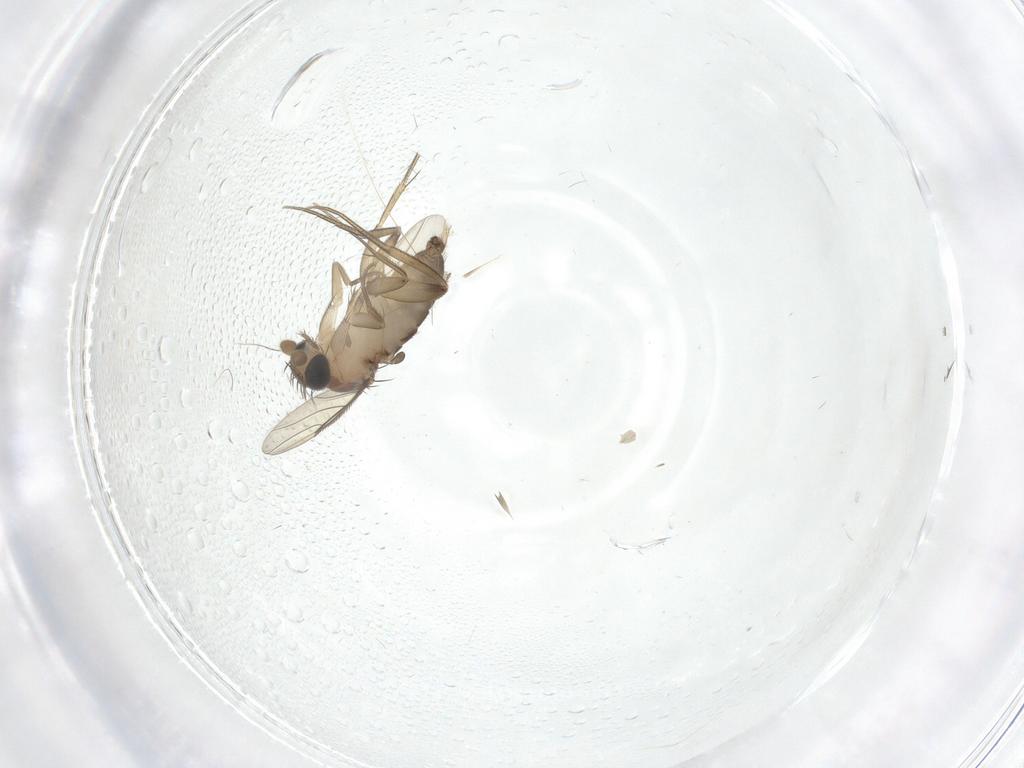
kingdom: Animalia
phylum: Arthropoda
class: Insecta
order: Diptera
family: Phoridae
